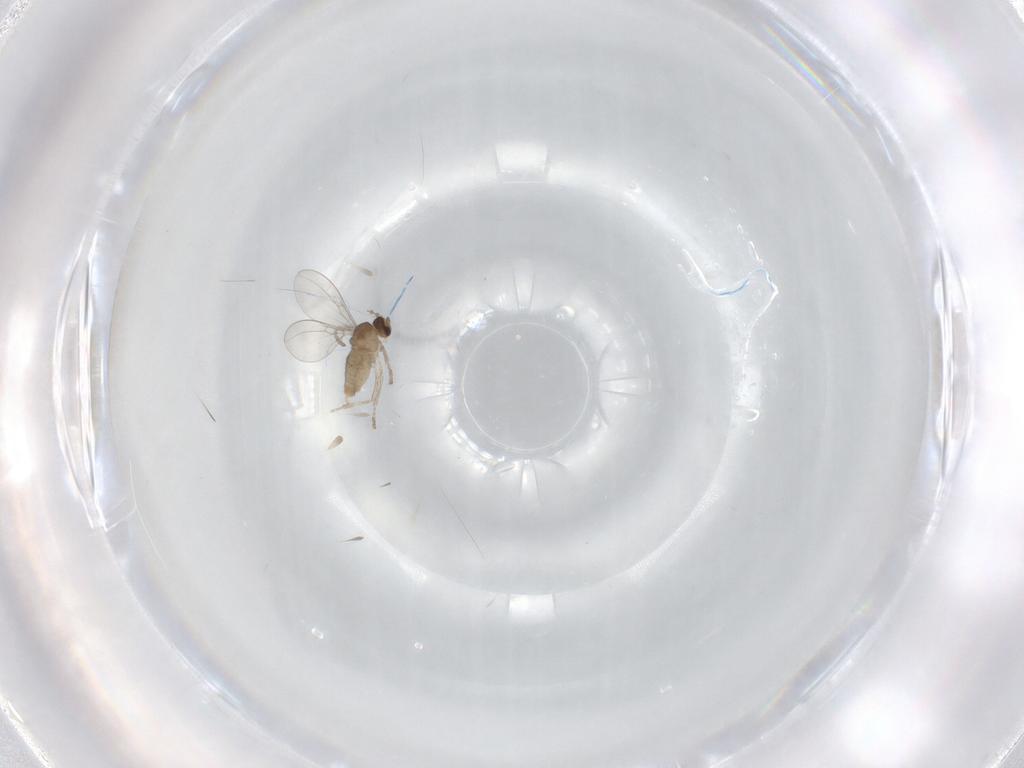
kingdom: Animalia
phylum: Arthropoda
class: Insecta
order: Diptera
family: Cecidomyiidae
